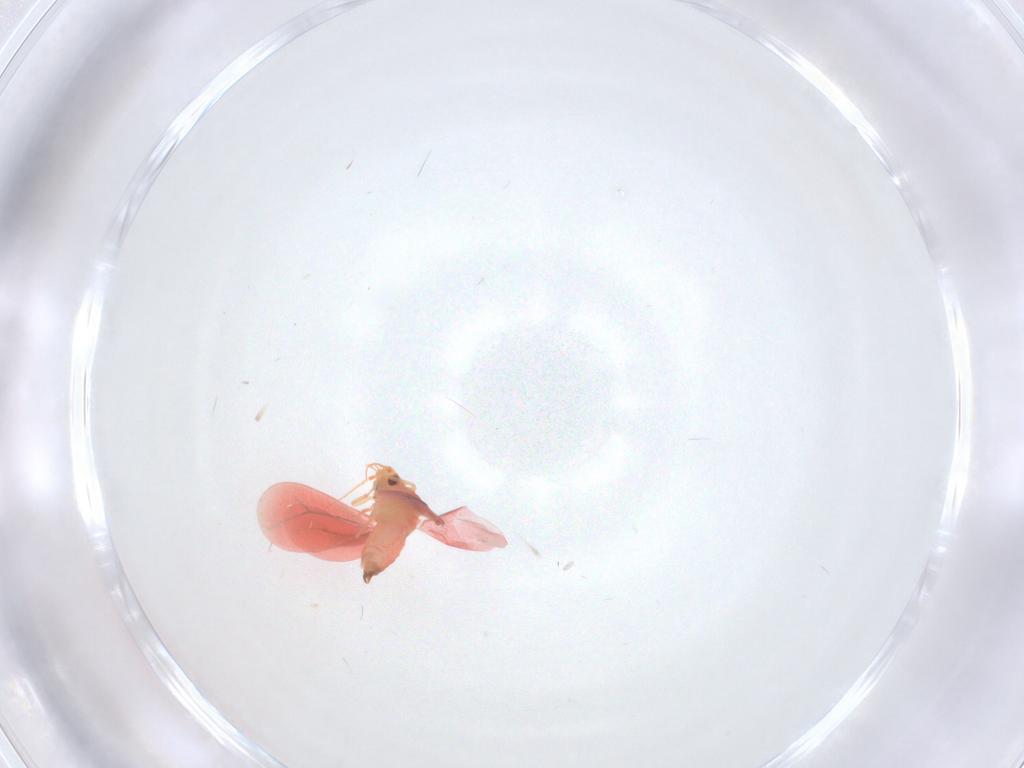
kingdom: Animalia
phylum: Arthropoda
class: Insecta
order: Hemiptera
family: Aleyrodidae
